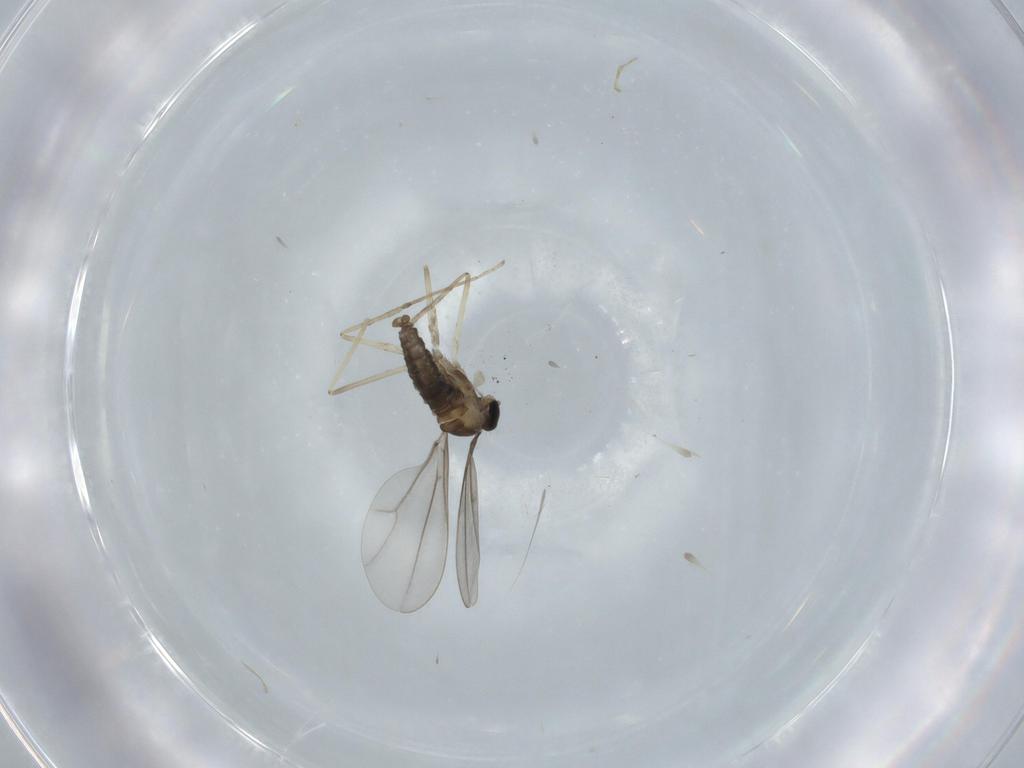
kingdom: Animalia
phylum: Arthropoda
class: Insecta
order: Diptera
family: Cecidomyiidae
